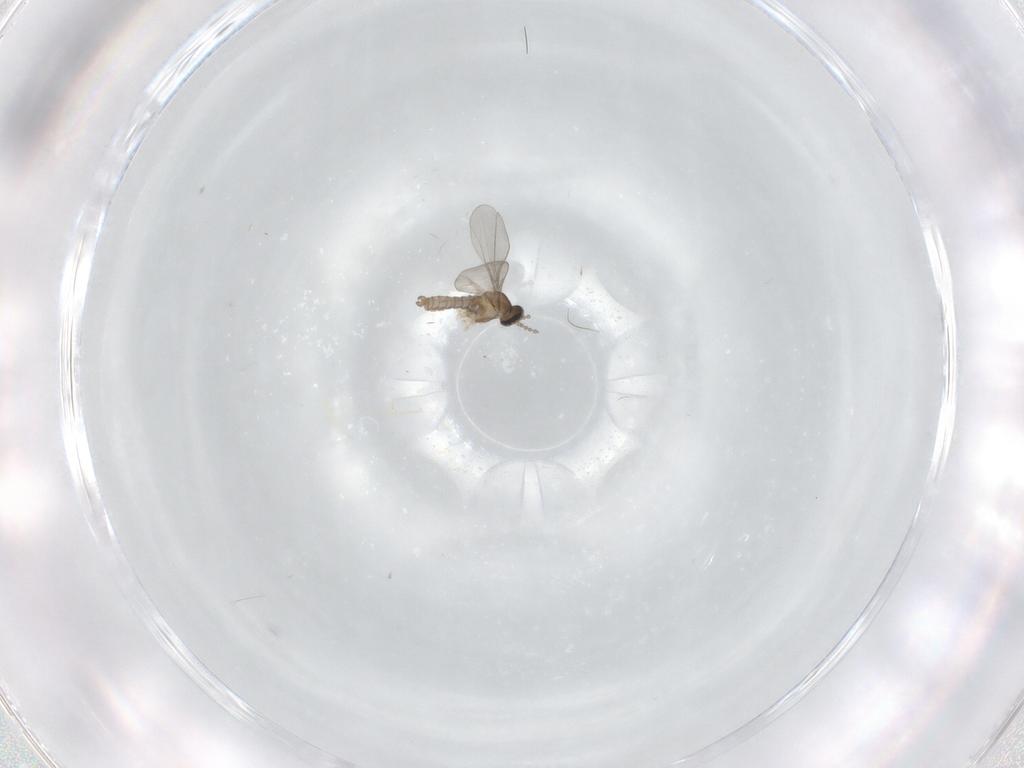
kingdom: Animalia
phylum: Arthropoda
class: Insecta
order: Diptera
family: Cecidomyiidae
